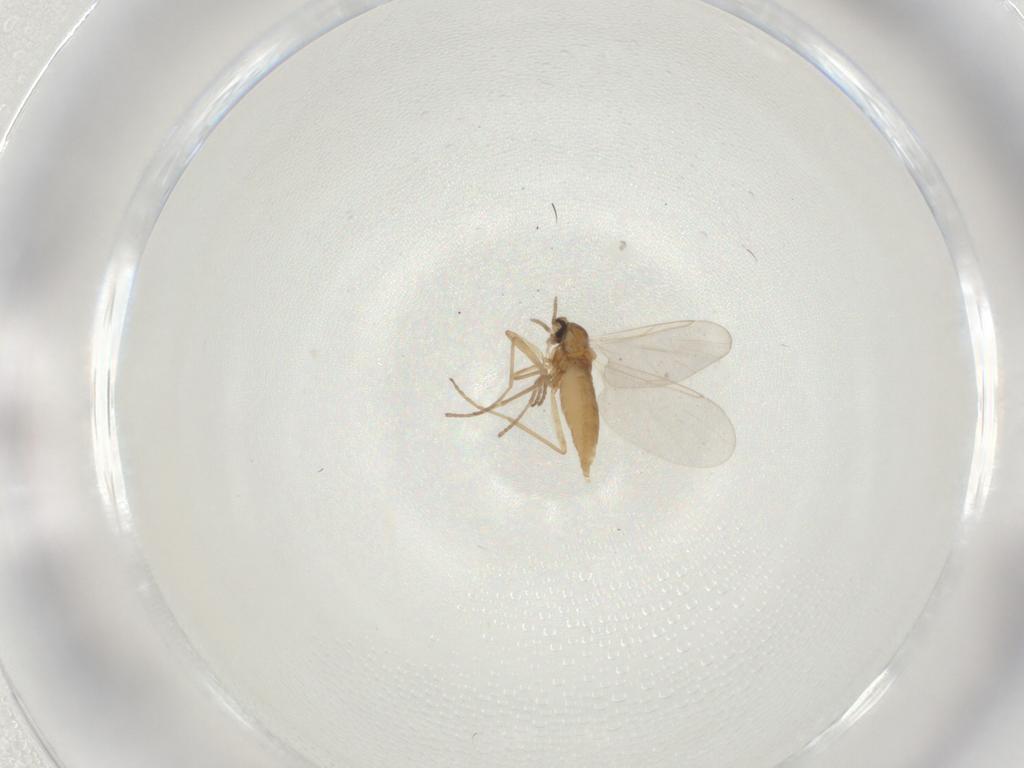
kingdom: Animalia
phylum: Arthropoda
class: Insecta
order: Diptera
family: Cecidomyiidae
